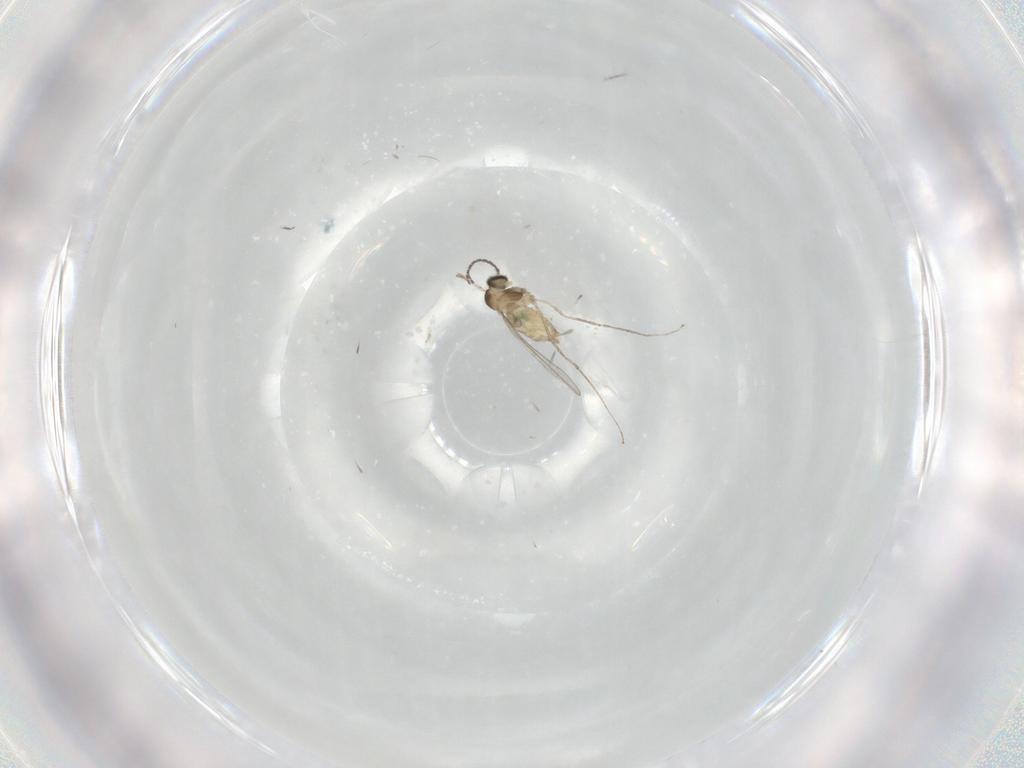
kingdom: Animalia
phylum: Arthropoda
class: Insecta
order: Diptera
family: Cecidomyiidae
